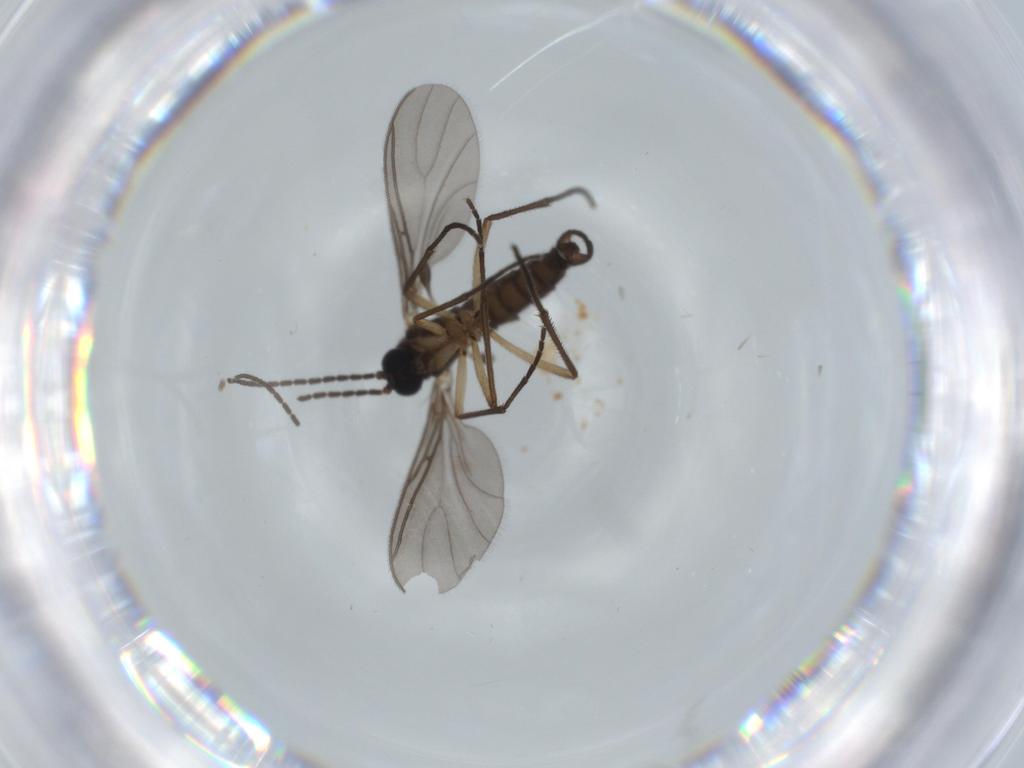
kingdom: Animalia
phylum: Arthropoda
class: Insecta
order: Diptera
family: Sciaridae
